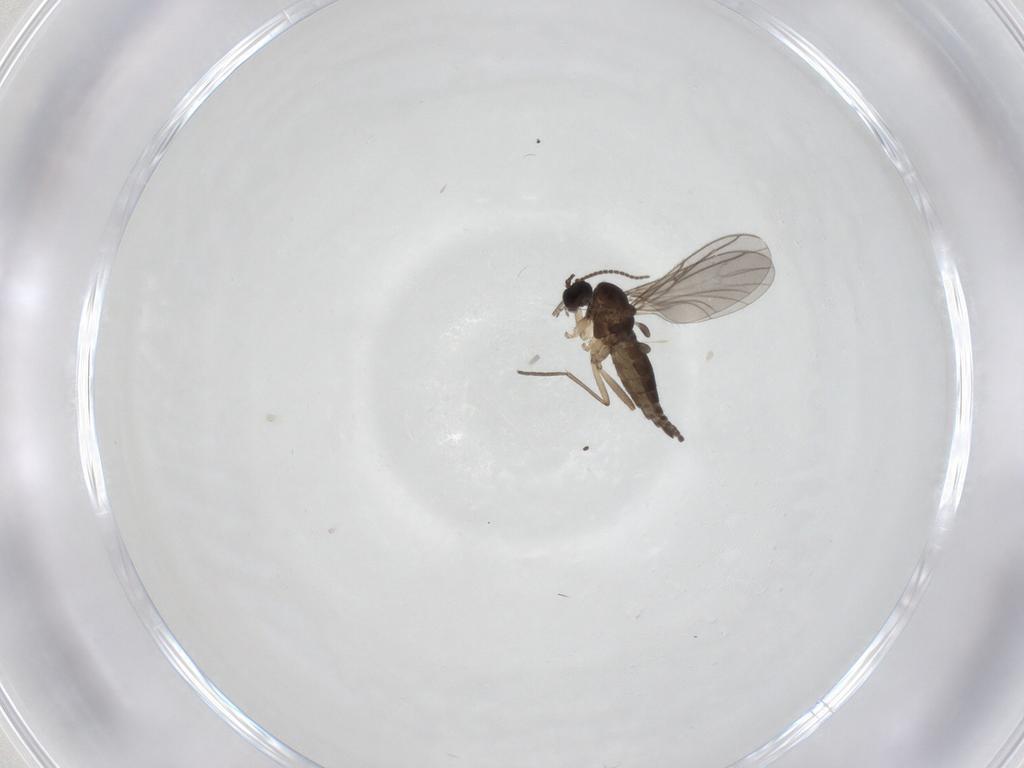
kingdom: Animalia
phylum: Arthropoda
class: Insecta
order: Diptera
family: Sciaridae
